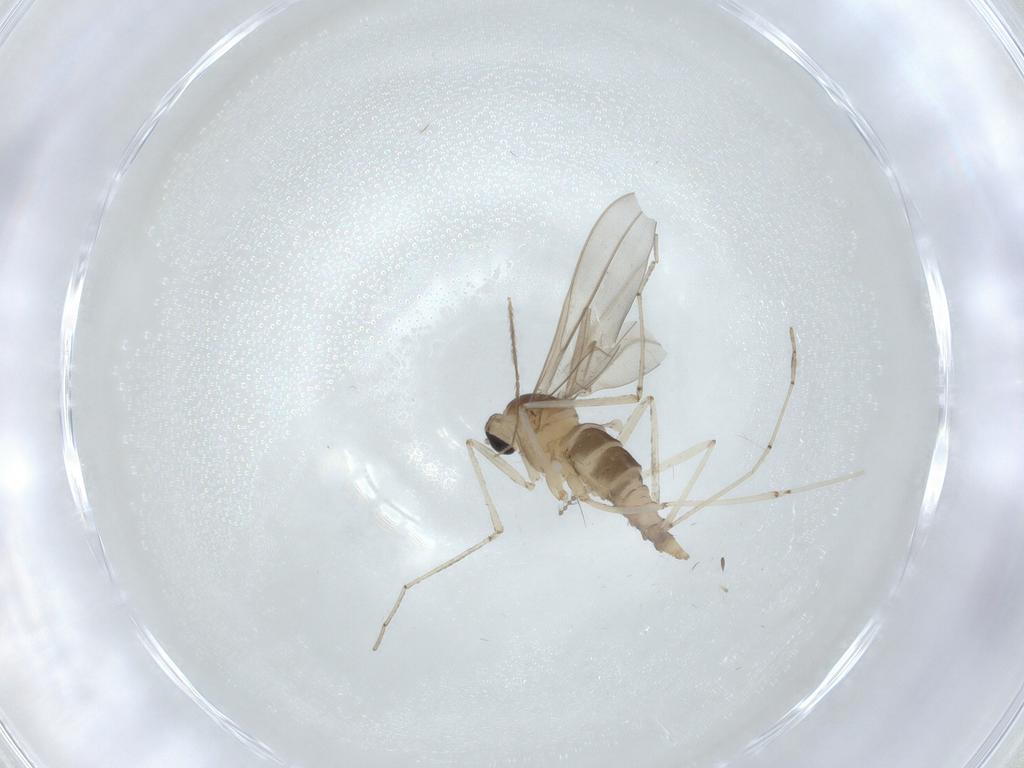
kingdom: Animalia
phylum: Arthropoda
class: Insecta
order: Diptera
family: Cecidomyiidae
